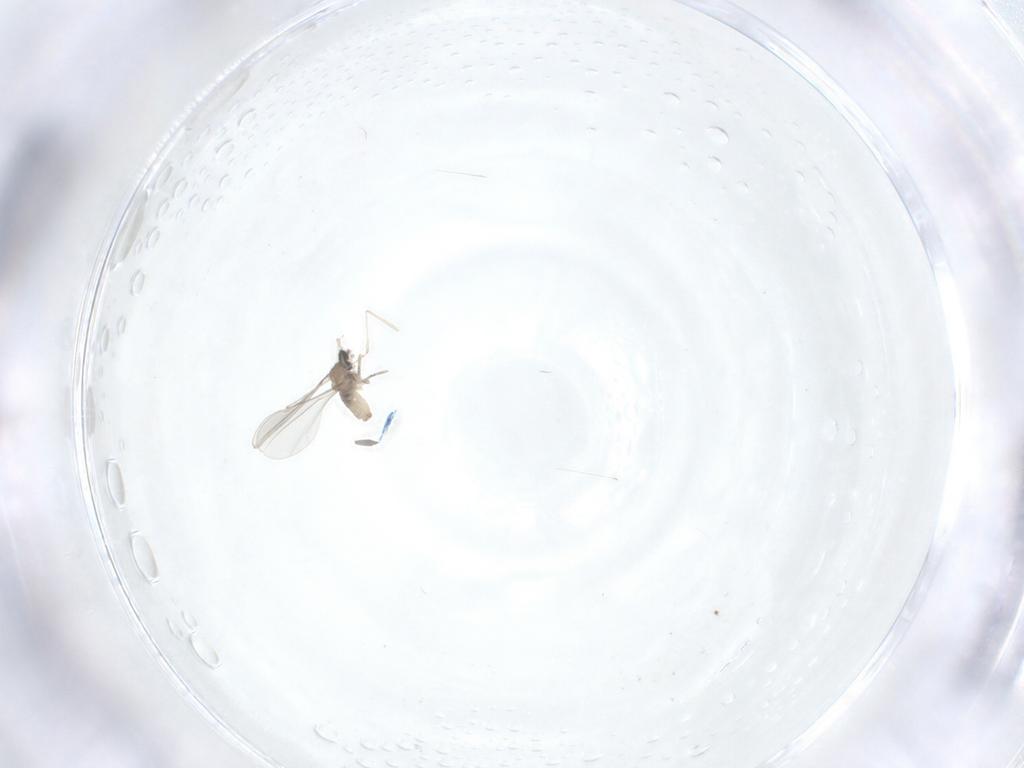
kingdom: Animalia
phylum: Arthropoda
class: Insecta
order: Diptera
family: Cecidomyiidae
